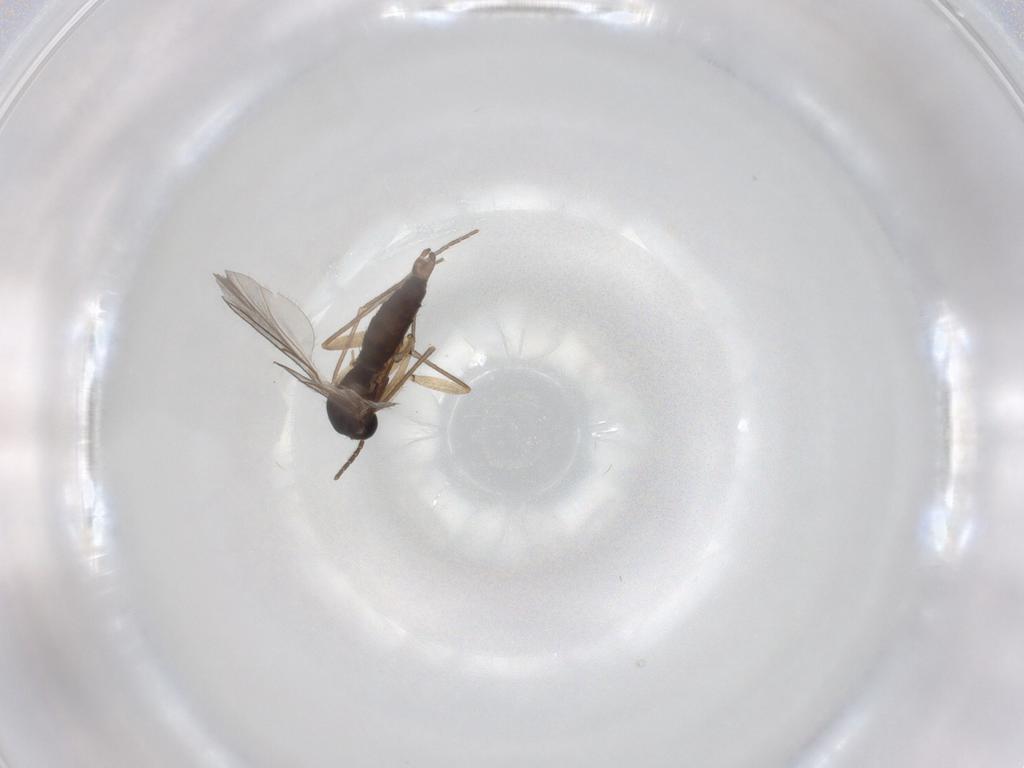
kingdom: Animalia
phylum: Arthropoda
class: Insecta
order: Diptera
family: Sciaridae
